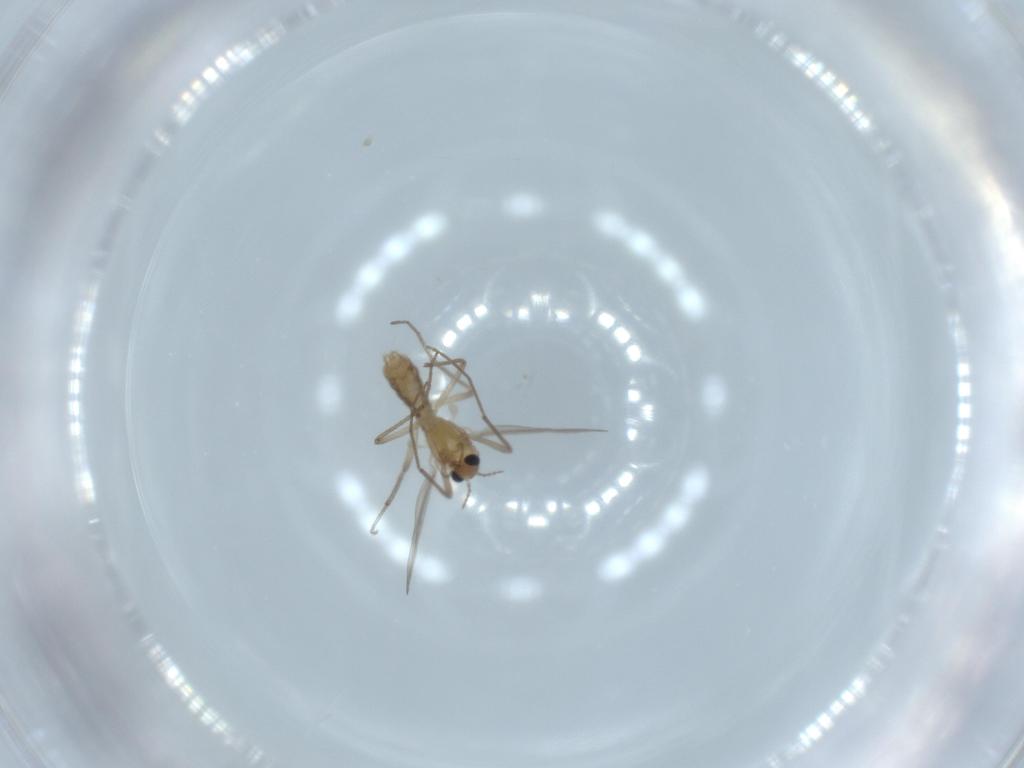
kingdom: Animalia
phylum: Arthropoda
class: Insecta
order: Diptera
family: Chironomidae
